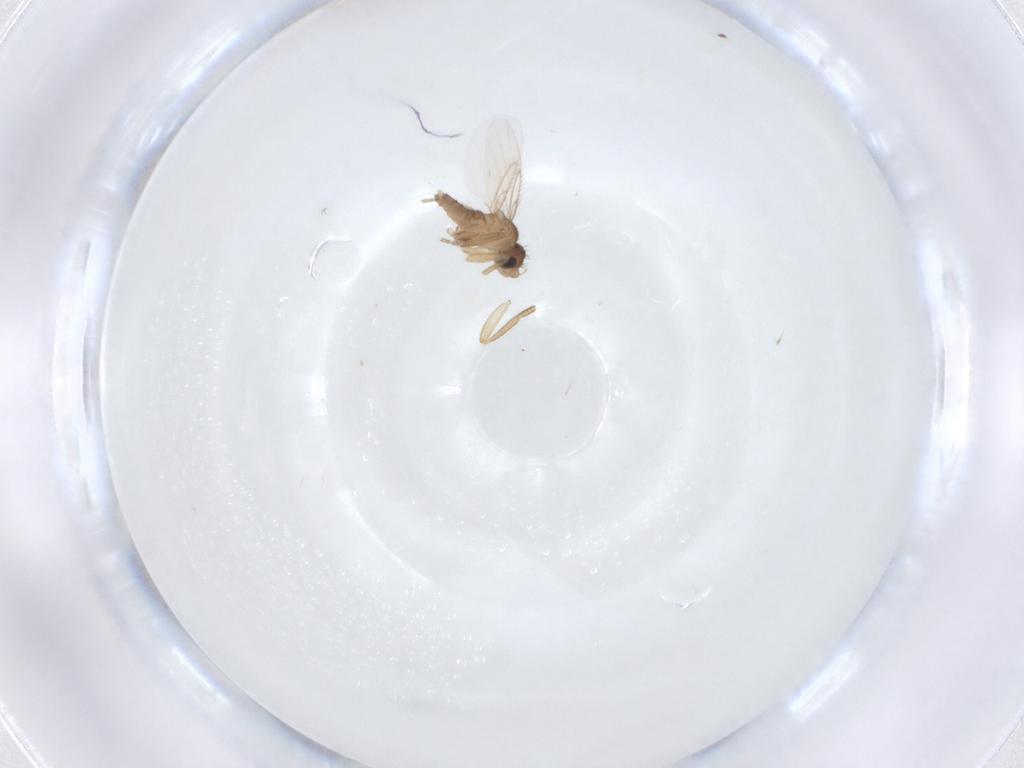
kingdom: Animalia
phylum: Arthropoda
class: Insecta
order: Diptera
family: Phoridae
